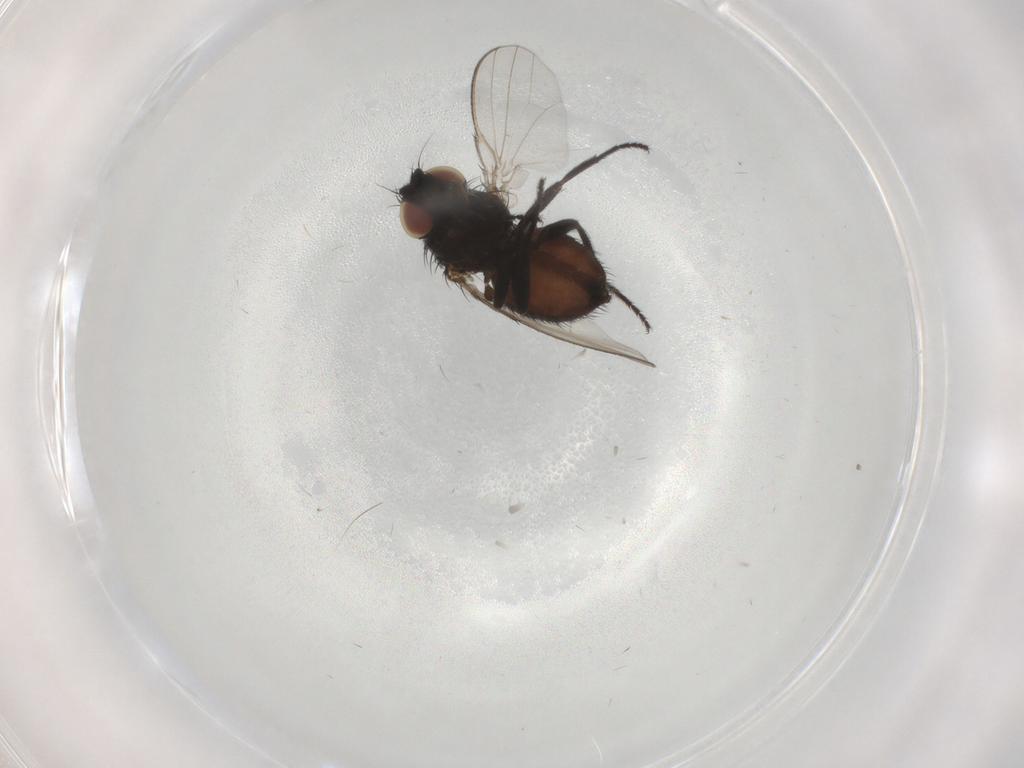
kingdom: Animalia
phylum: Arthropoda
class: Insecta
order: Diptera
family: Milichiidae
